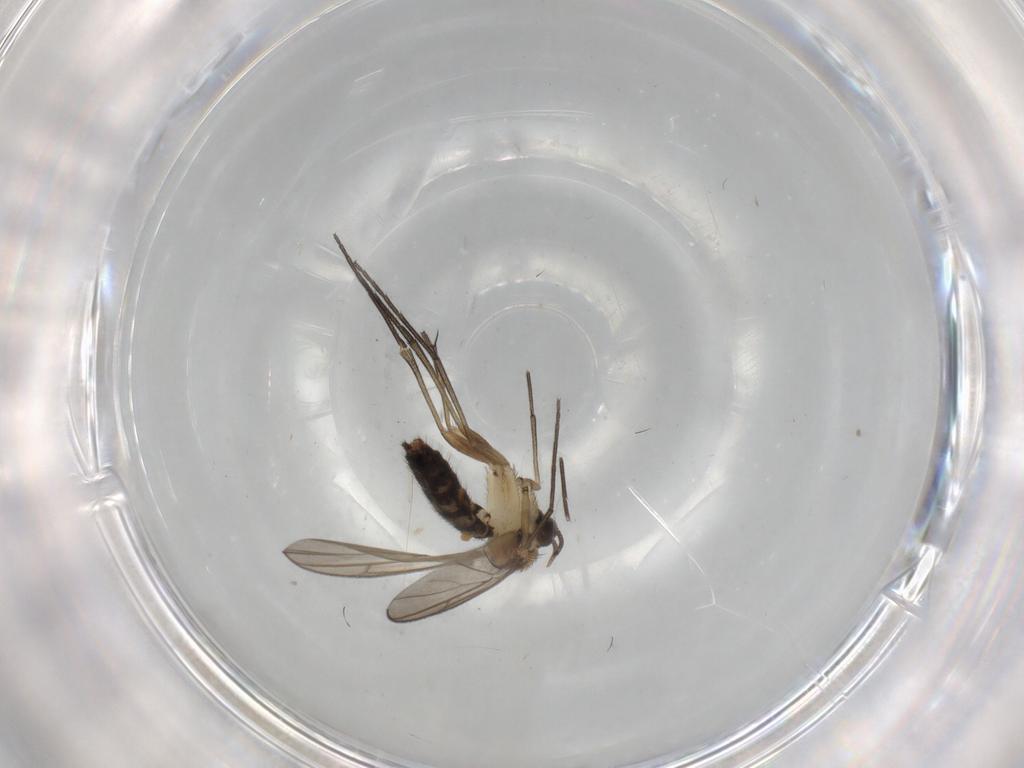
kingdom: Animalia
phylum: Arthropoda
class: Insecta
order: Diptera
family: Keroplatidae
